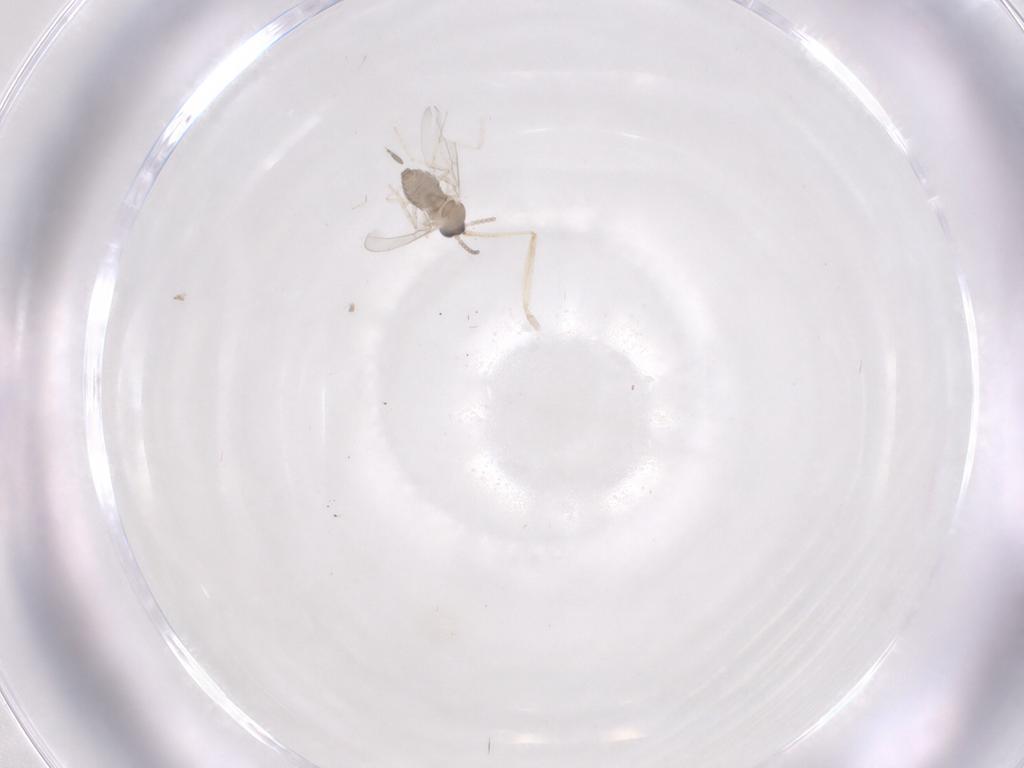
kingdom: Animalia
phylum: Arthropoda
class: Insecta
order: Diptera
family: Cecidomyiidae
